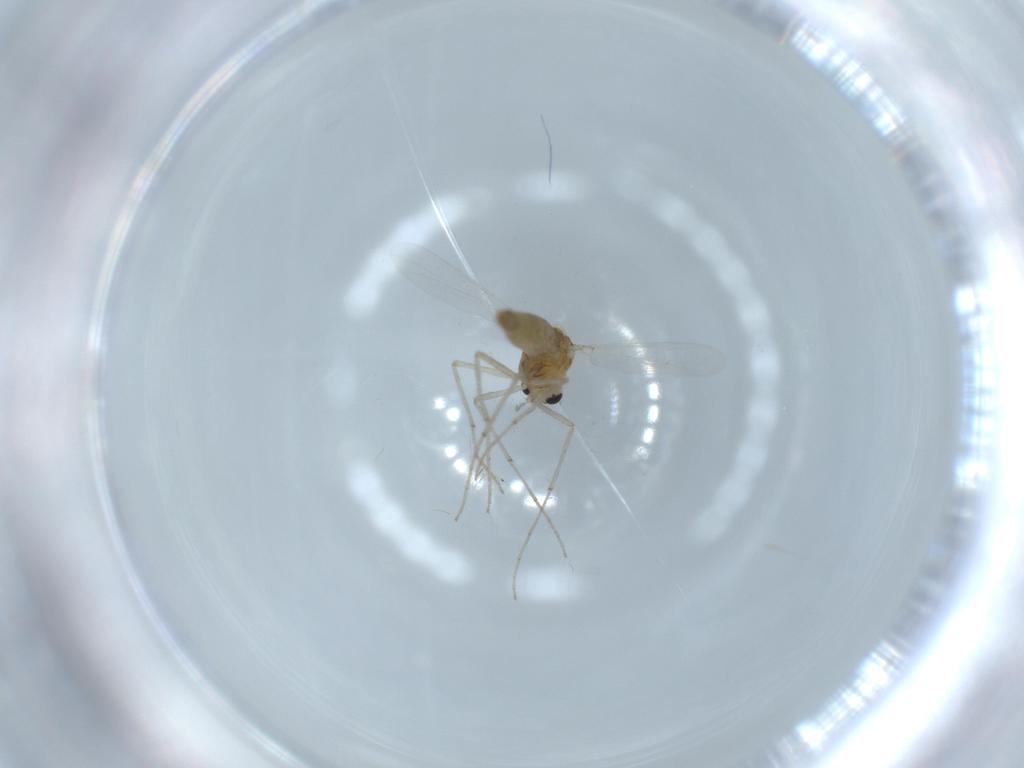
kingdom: Animalia
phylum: Arthropoda
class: Insecta
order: Diptera
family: Chironomidae
